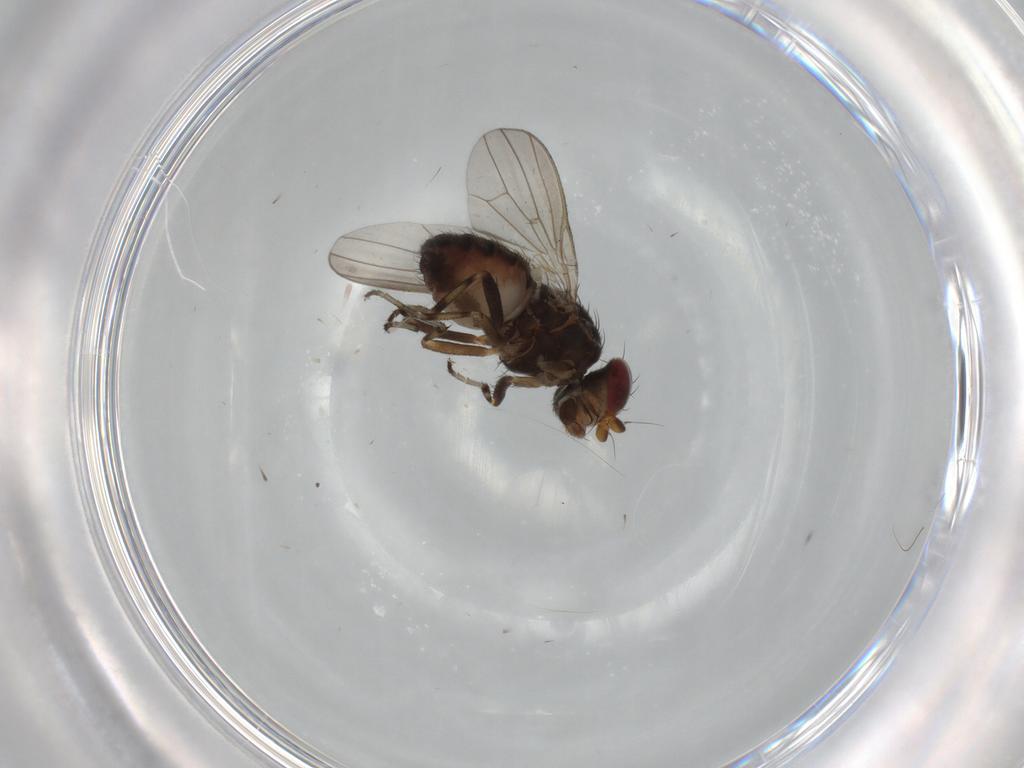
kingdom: Animalia
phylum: Arthropoda
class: Insecta
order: Diptera
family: Heleomyzidae
